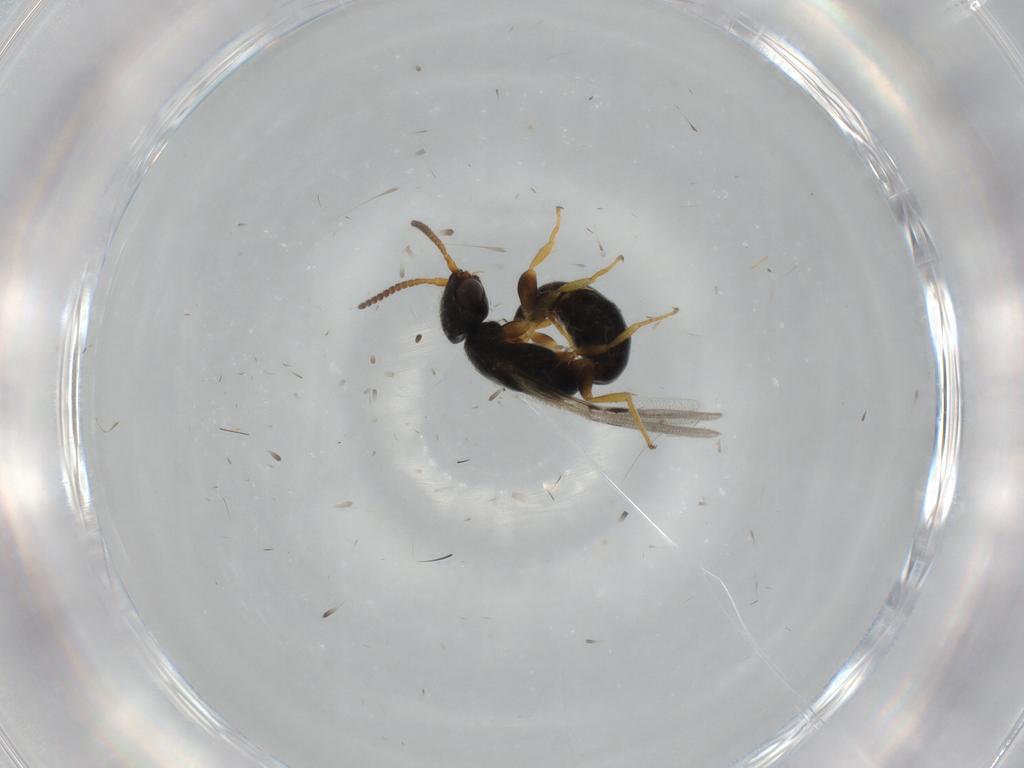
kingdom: Animalia
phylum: Arthropoda
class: Insecta
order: Hymenoptera
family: Bethylidae
